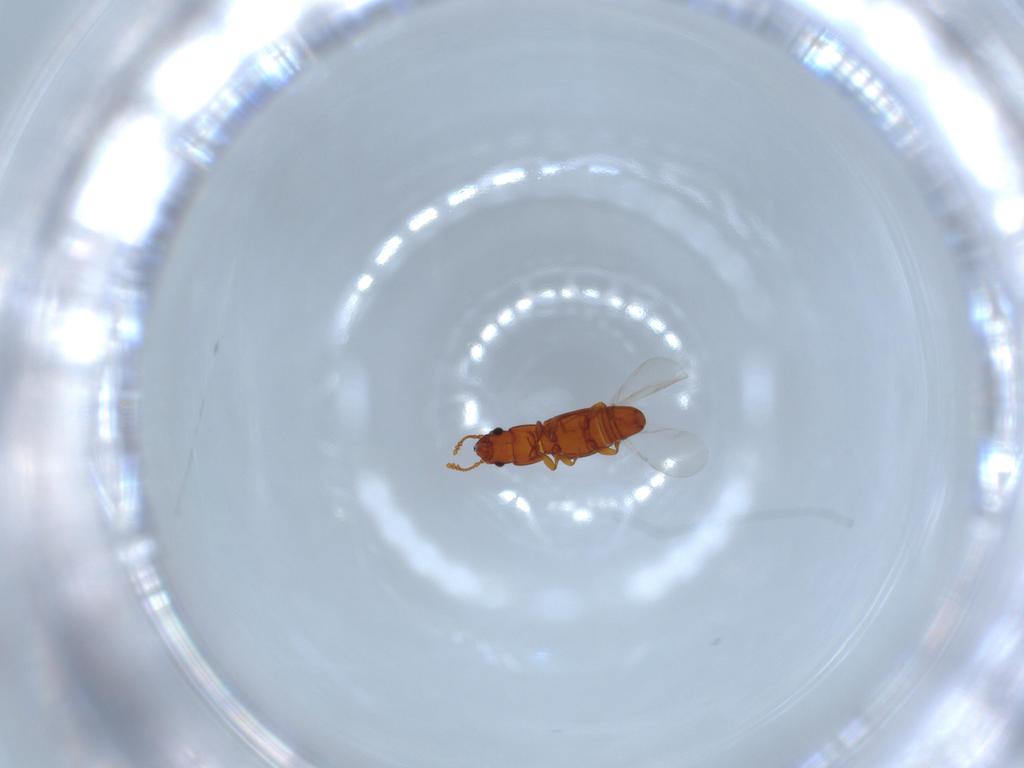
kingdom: Animalia
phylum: Arthropoda
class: Insecta
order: Coleoptera
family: Smicripidae
